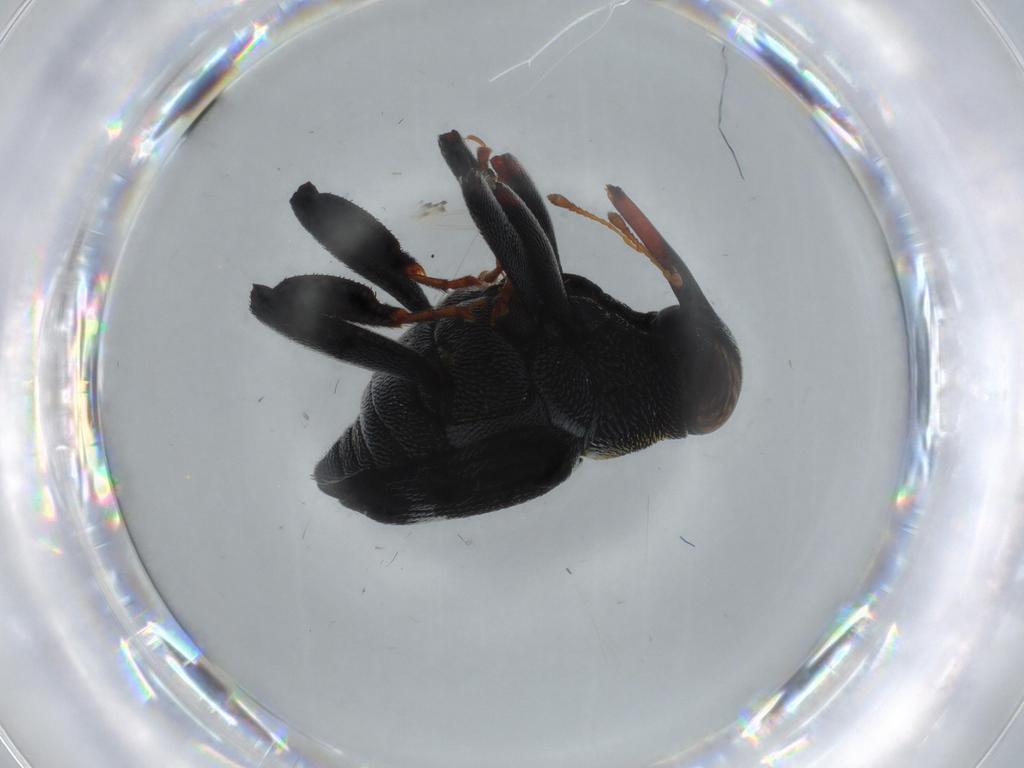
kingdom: Animalia
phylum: Arthropoda
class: Insecta
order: Coleoptera
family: Curculionidae
